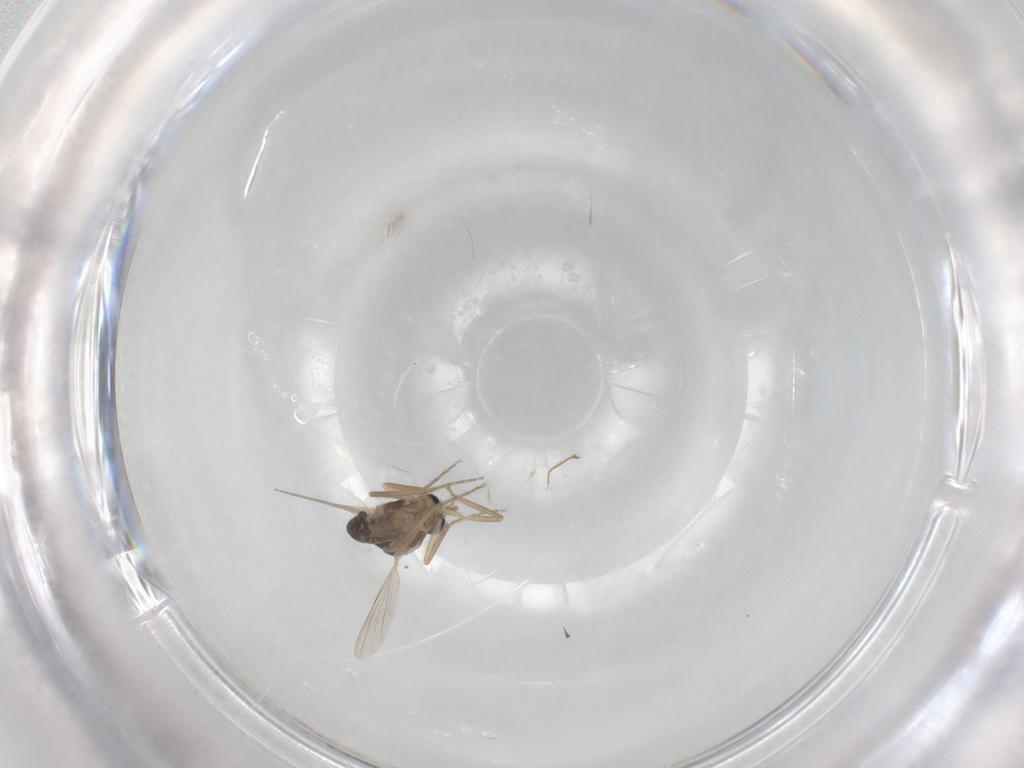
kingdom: Animalia
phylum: Arthropoda
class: Insecta
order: Diptera
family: Ceratopogonidae
